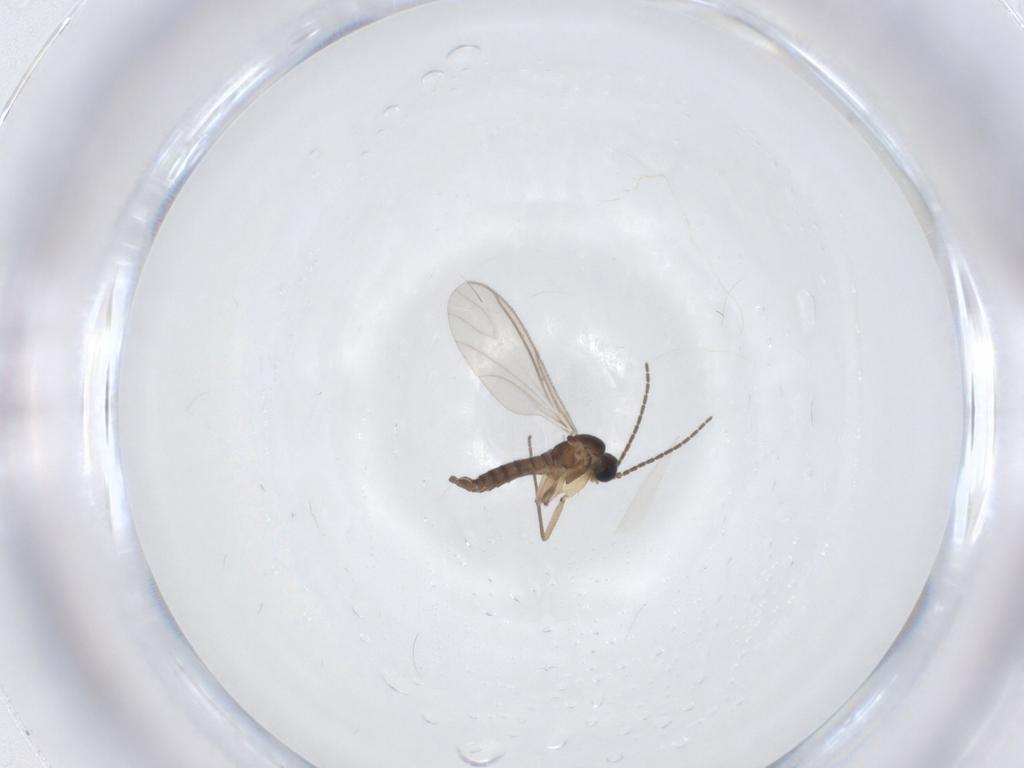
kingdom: Animalia
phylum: Arthropoda
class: Insecta
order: Diptera
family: Sciaridae
